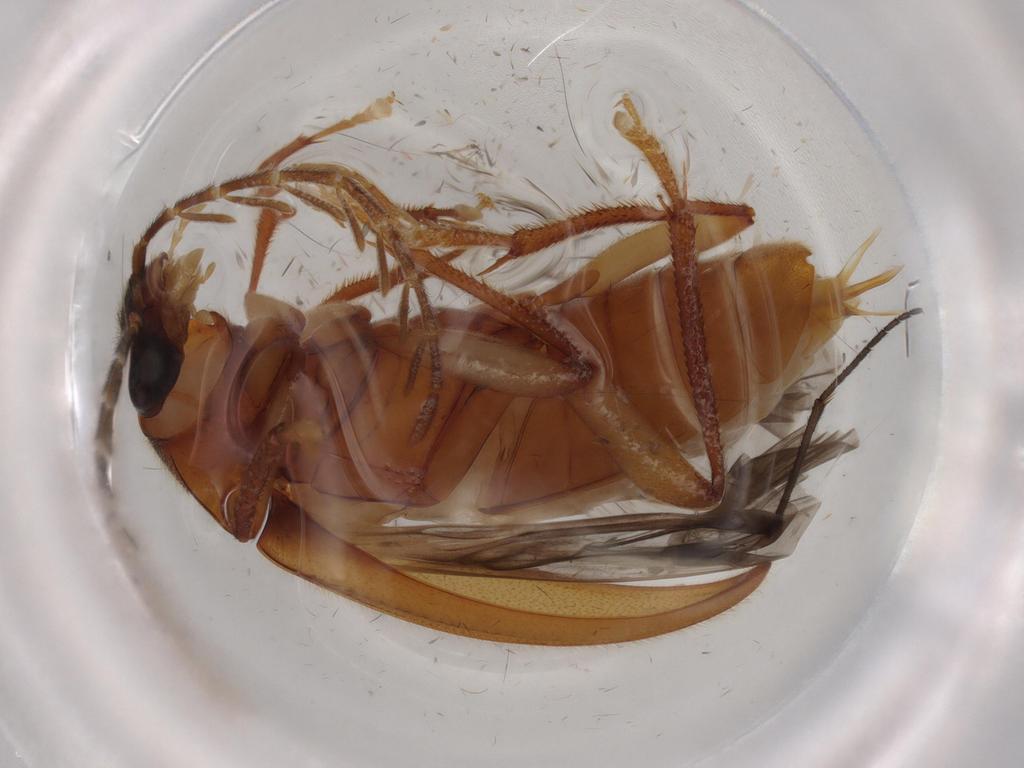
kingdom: Animalia
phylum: Arthropoda
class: Insecta
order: Coleoptera
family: Ptilodactylidae
